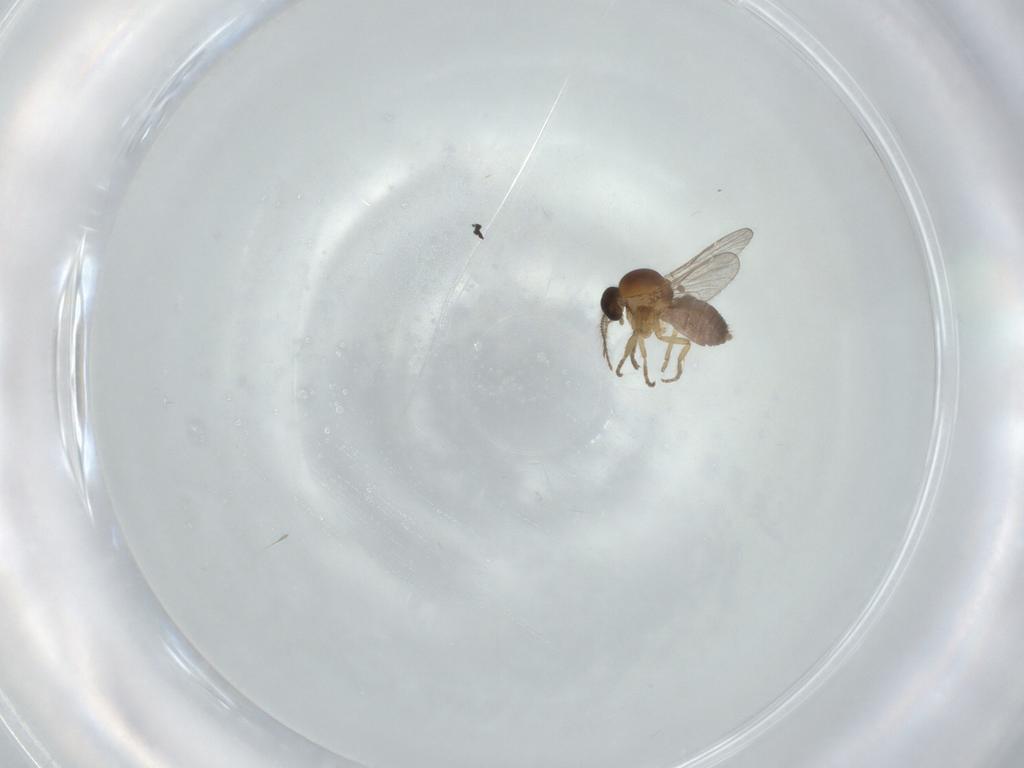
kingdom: Animalia
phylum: Arthropoda
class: Insecta
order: Diptera
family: Ceratopogonidae
